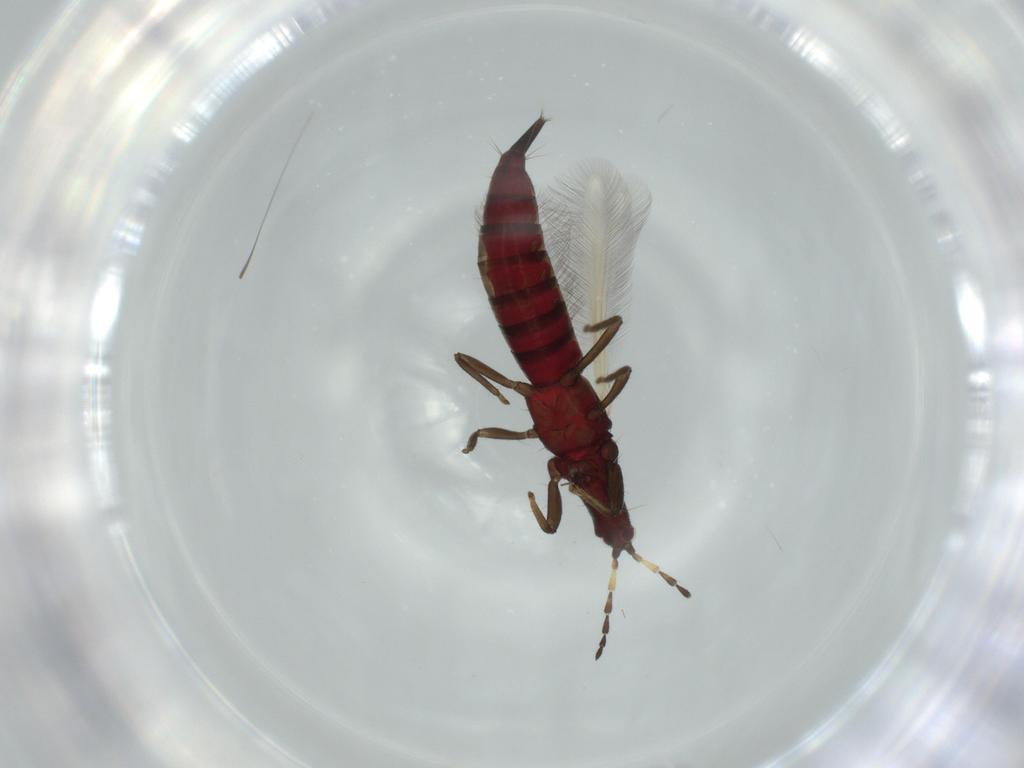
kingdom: Animalia
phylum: Arthropoda
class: Insecta
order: Thysanoptera
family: Phlaeothripidae
